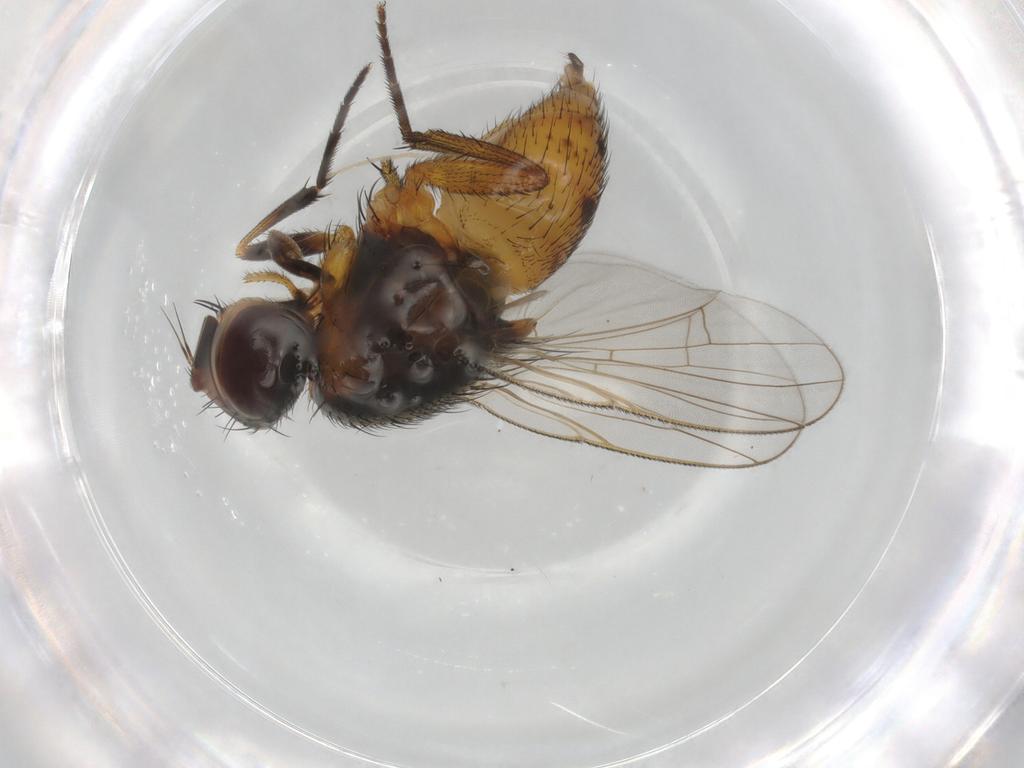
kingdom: Animalia
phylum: Arthropoda
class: Insecta
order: Diptera
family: Muscidae
